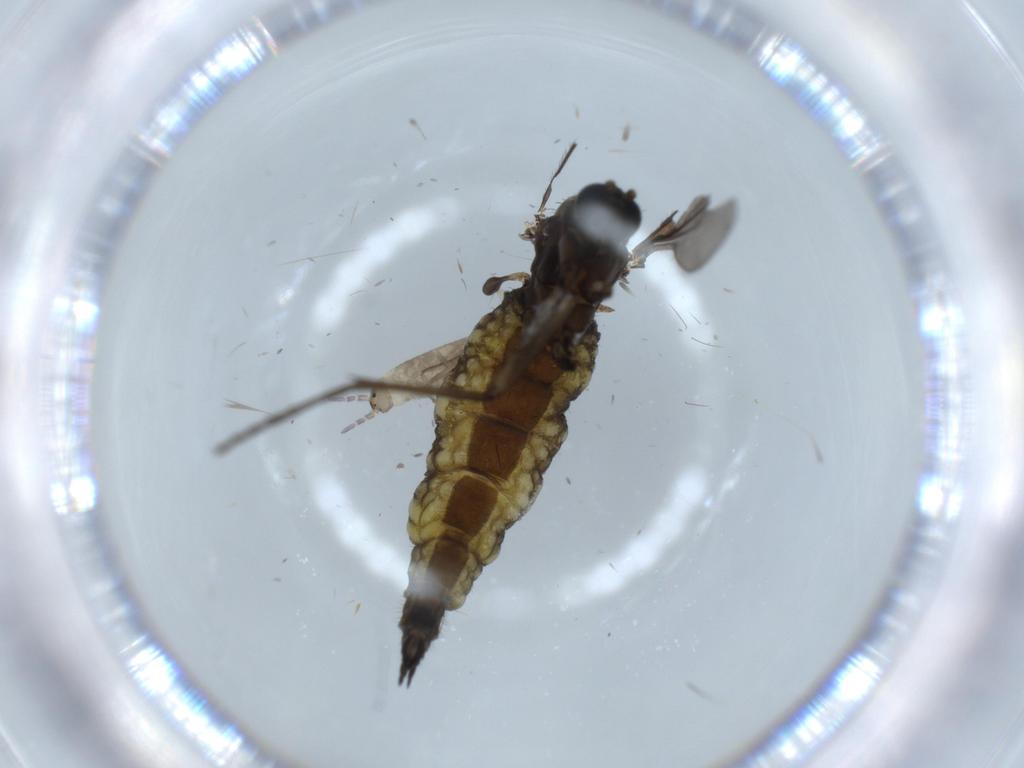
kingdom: Animalia
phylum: Arthropoda
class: Insecta
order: Diptera
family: Sciaridae
